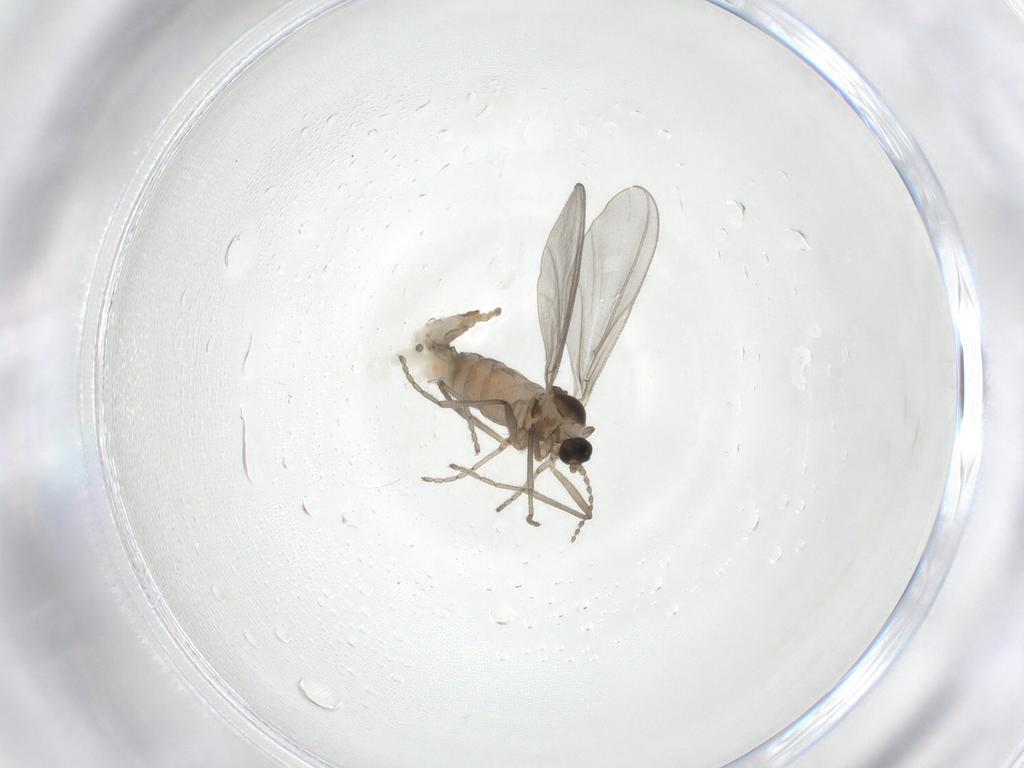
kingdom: Animalia
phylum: Arthropoda
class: Insecta
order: Diptera
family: Cecidomyiidae
